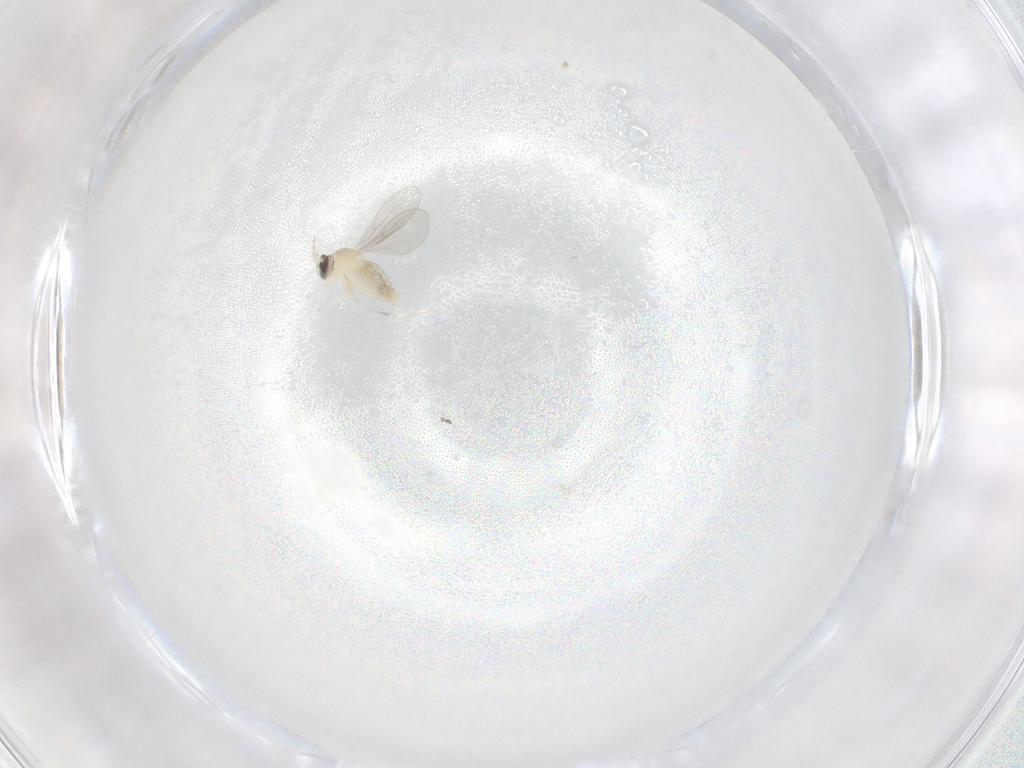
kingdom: Animalia
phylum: Arthropoda
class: Insecta
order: Diptera
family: Cecidomyiidae
